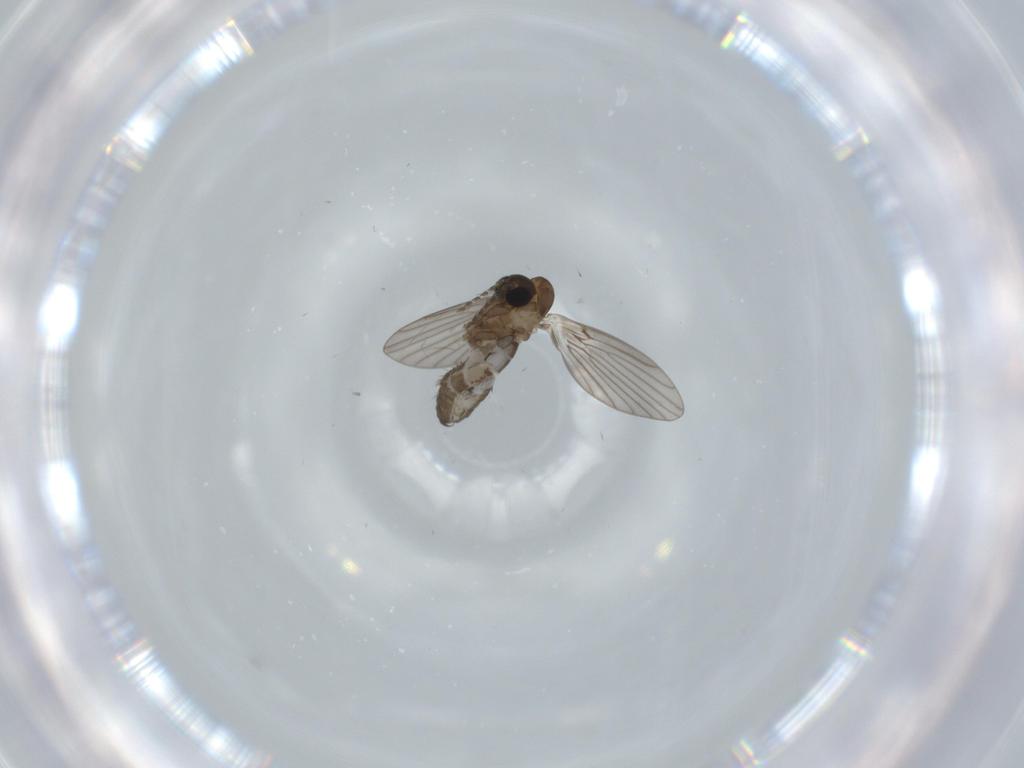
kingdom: Animalia
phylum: Arthropoda
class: Insecta
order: Diptera
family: Psychodidae
